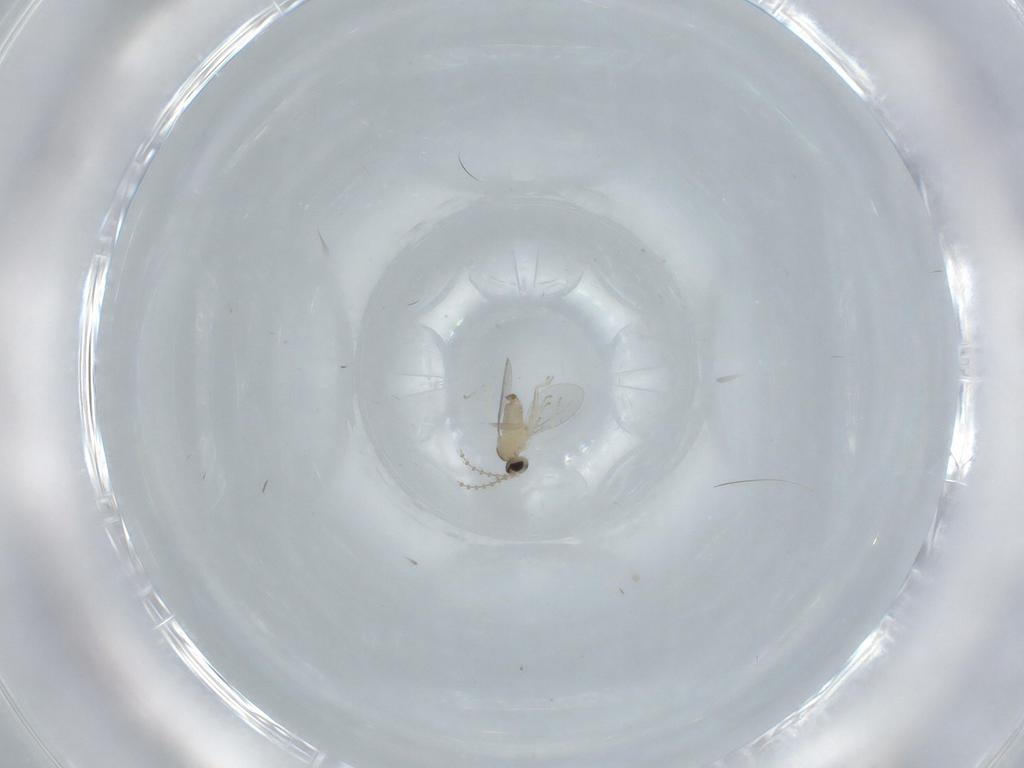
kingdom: Animalia
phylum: Arthropoda
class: Insecta
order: Diptera
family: Cecidomyiidae
